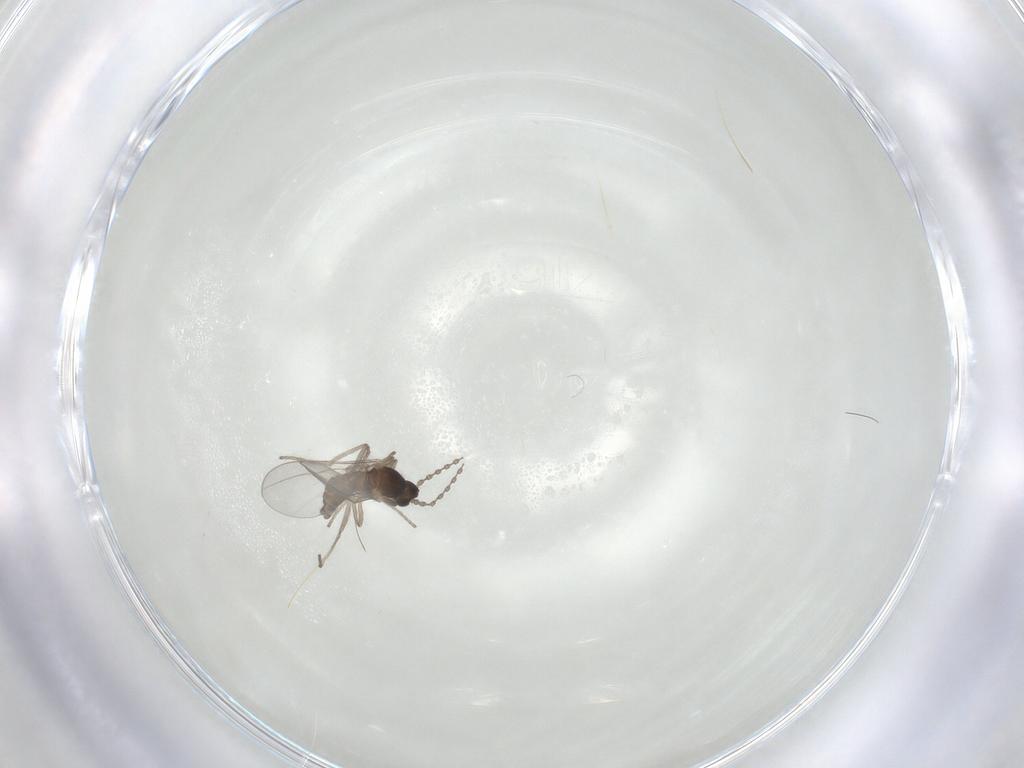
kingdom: Animalia
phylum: Arthropoda
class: Insecta
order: Diptera
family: Cecidomyiidae
